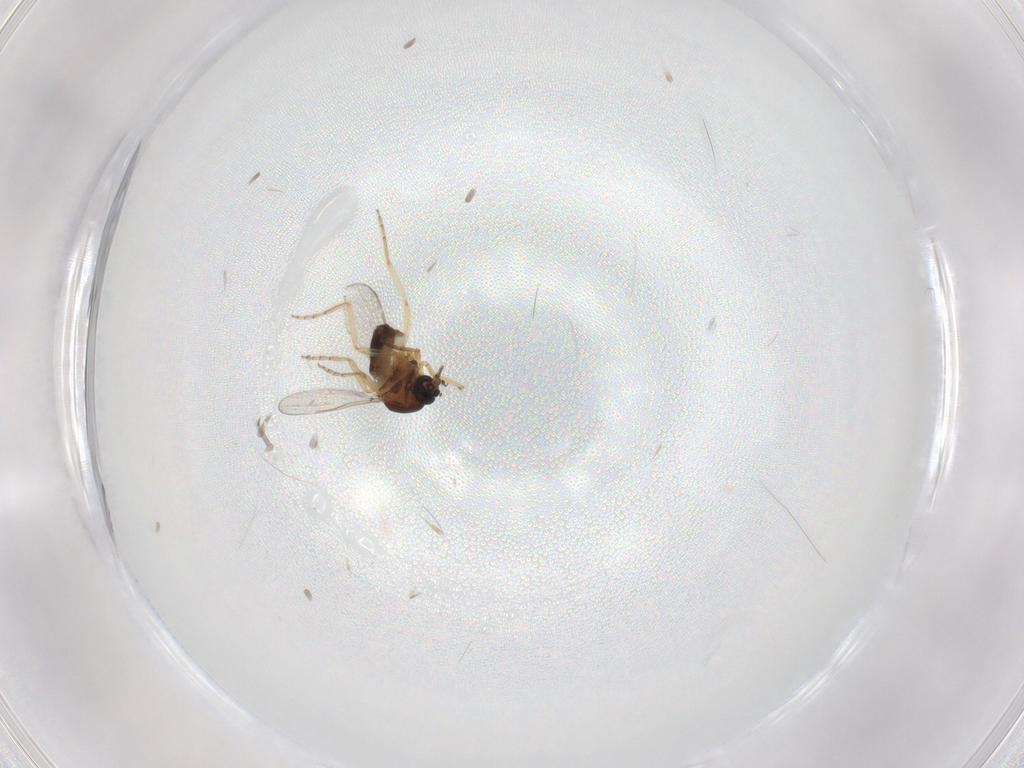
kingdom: Animalia
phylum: Arthropoda
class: Insecta
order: Diptera
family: Ceratopogonidae
